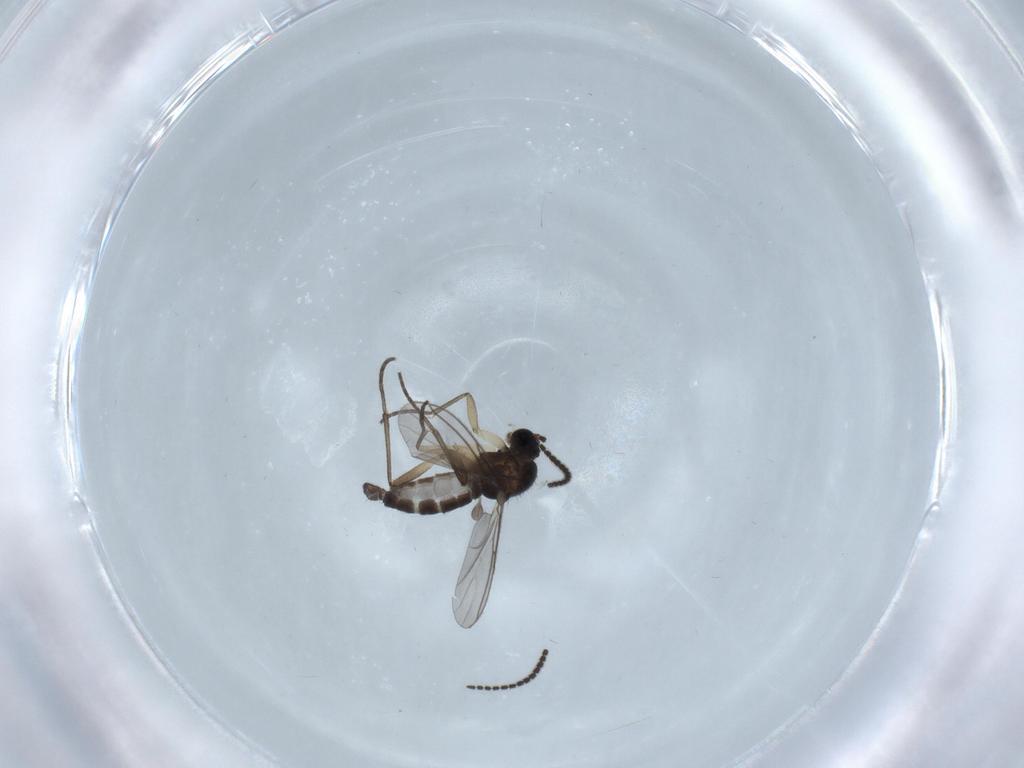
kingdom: Animalia
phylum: Arthropoda
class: Insecta
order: Diptera
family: Sciaridae
